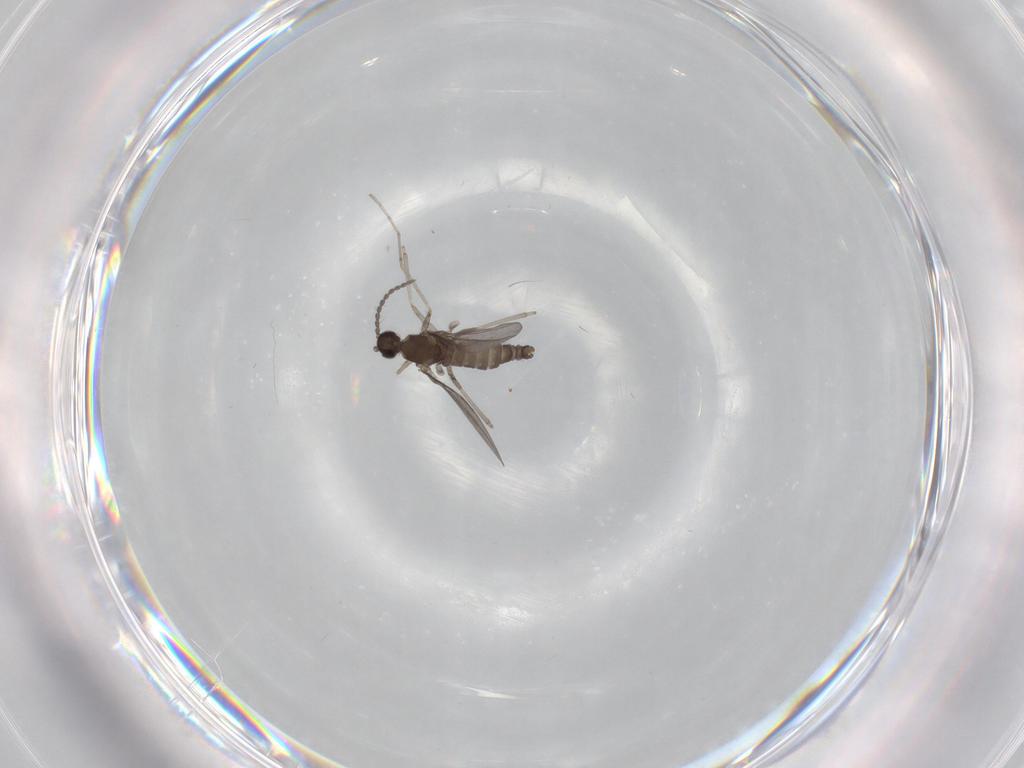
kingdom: Animalia
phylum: Arthropoda
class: Insecta
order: Diptera
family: Cecidomyiidae
